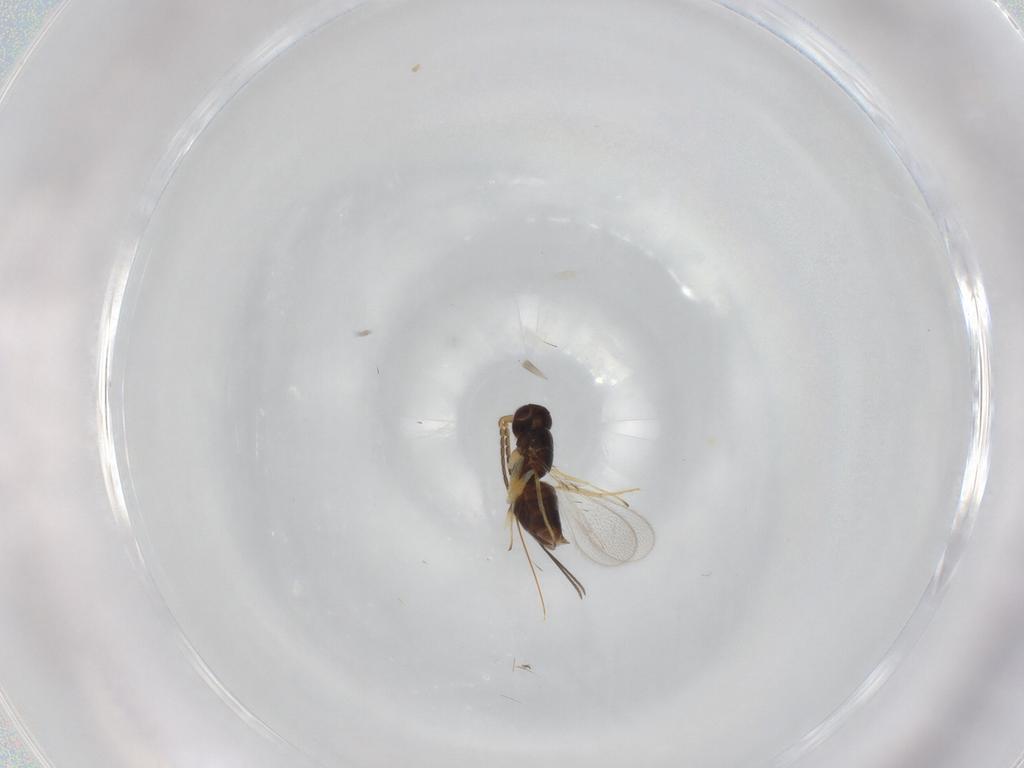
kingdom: Animalia
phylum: Arthropoda
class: Insecta
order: Hymenoptera
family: Mymaridae
